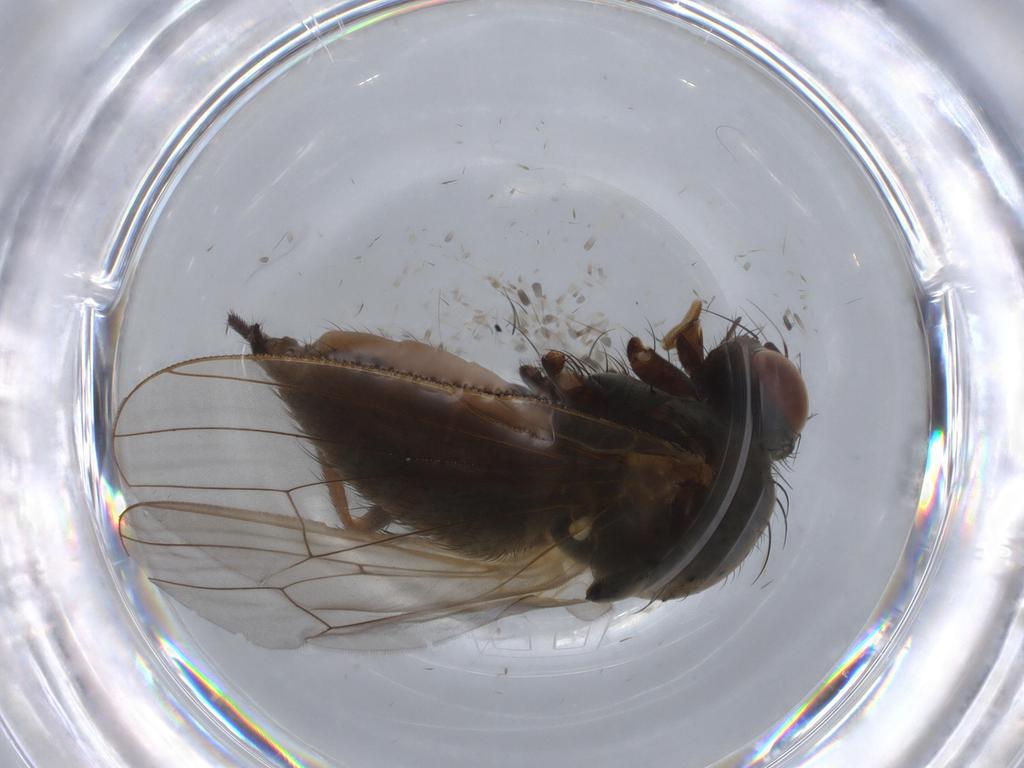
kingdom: Animalia
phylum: Arthropoda
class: Insecta
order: Diptera
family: Anthomyiidae
